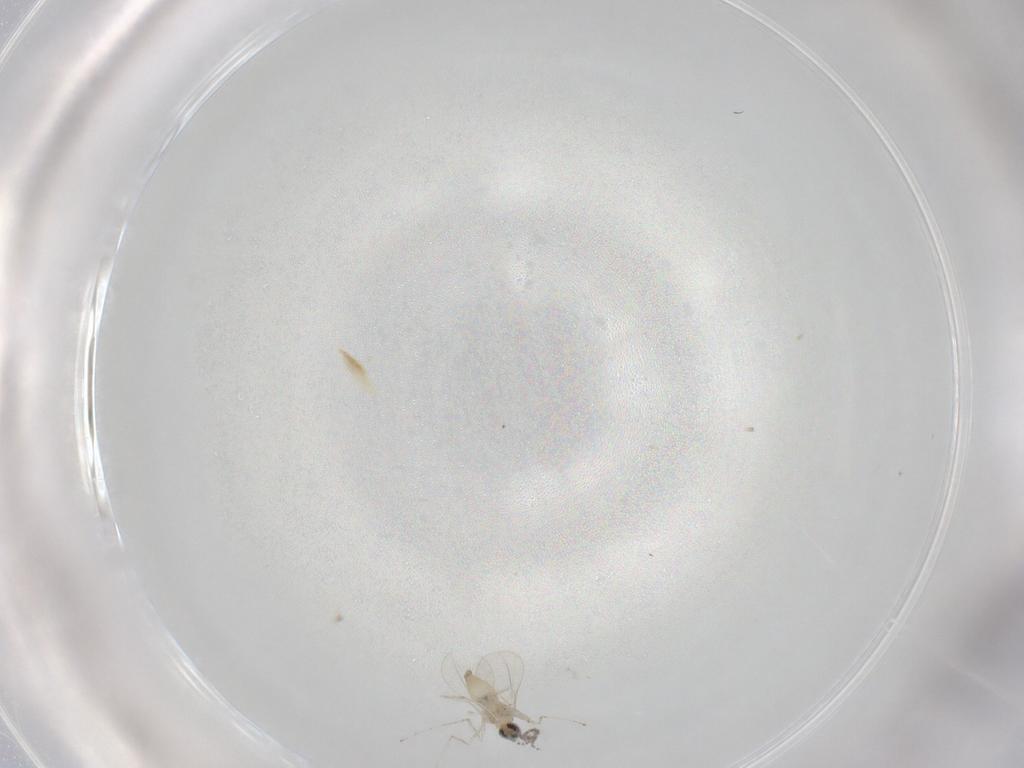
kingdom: Animalia
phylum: Arthropoda
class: Insecta
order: Diptera
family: Cecidomyiidae
